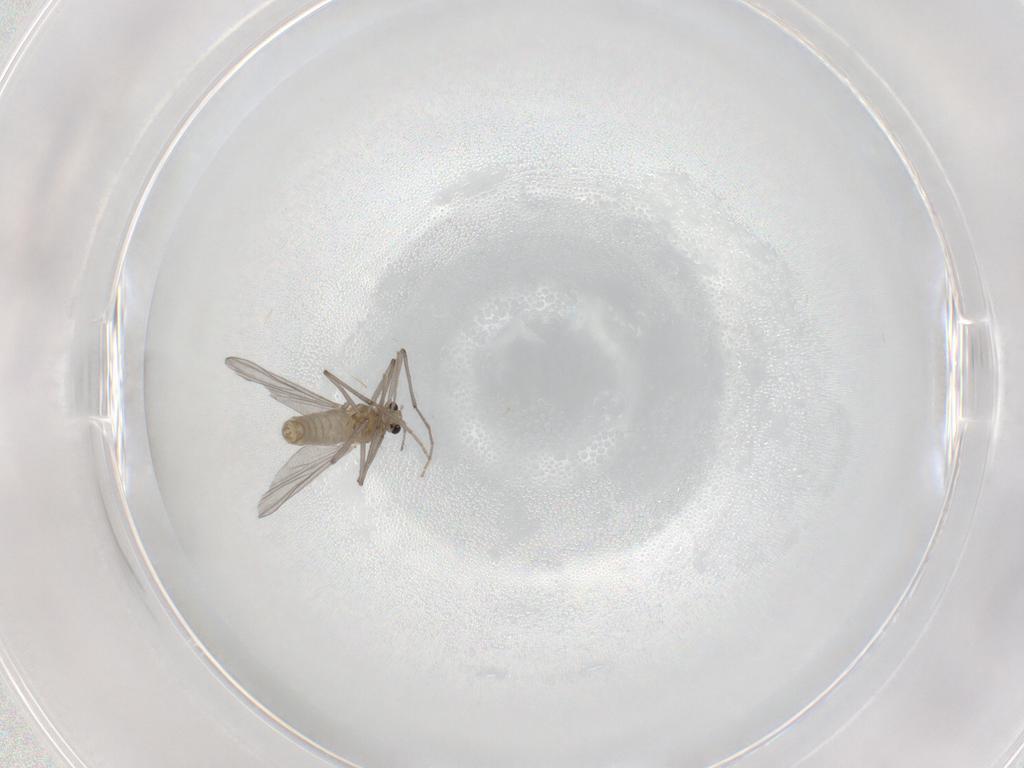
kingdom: Animalia
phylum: Arthropoda
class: Insecta
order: Diptera
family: Chironomidae
